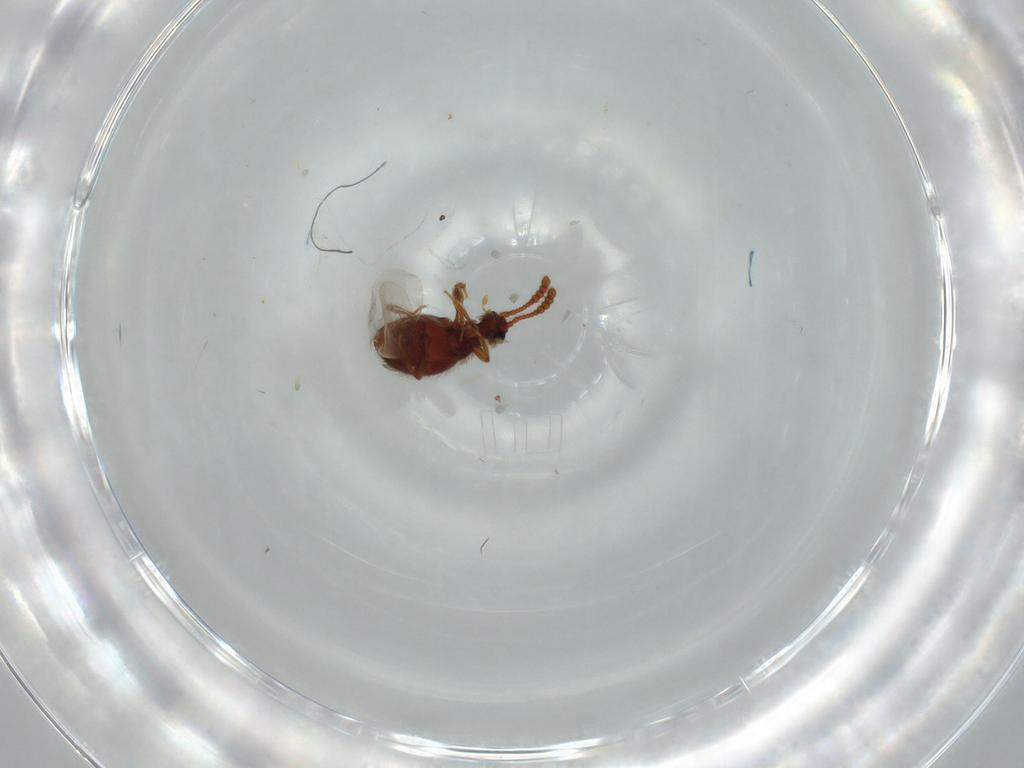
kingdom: Animalia
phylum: Arthropoda
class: Insecta
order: Coleoptera
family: Staphylinidae
